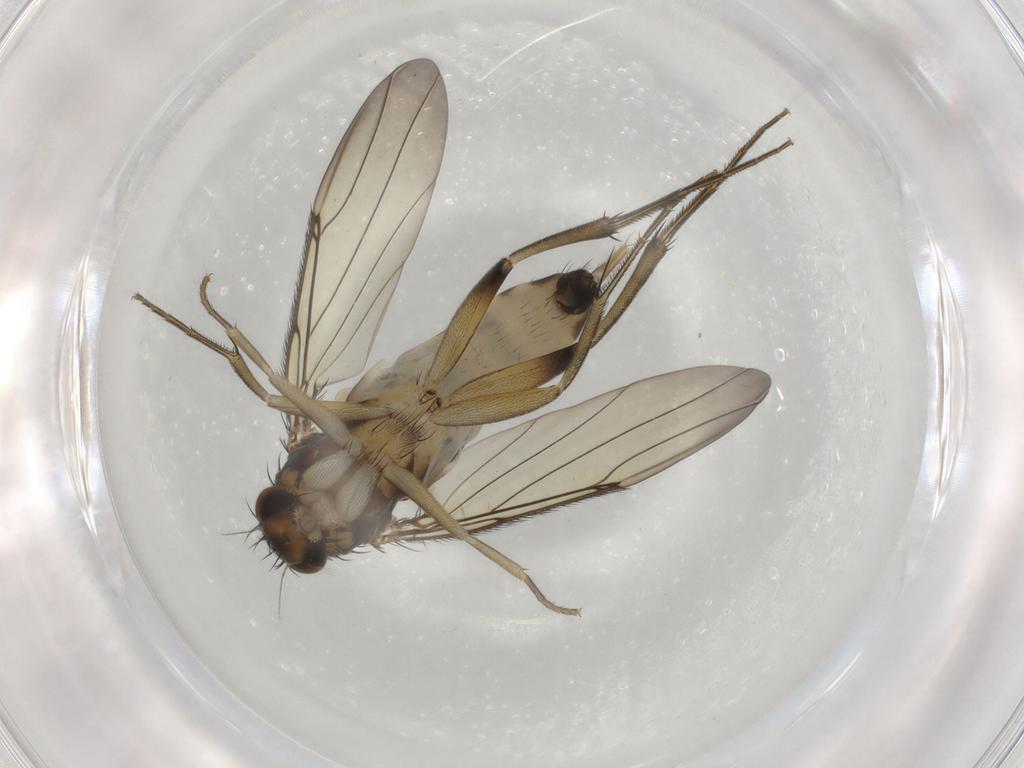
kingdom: Animalia
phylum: Arthropoda
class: Insecta
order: Diptera
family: Phoridae
